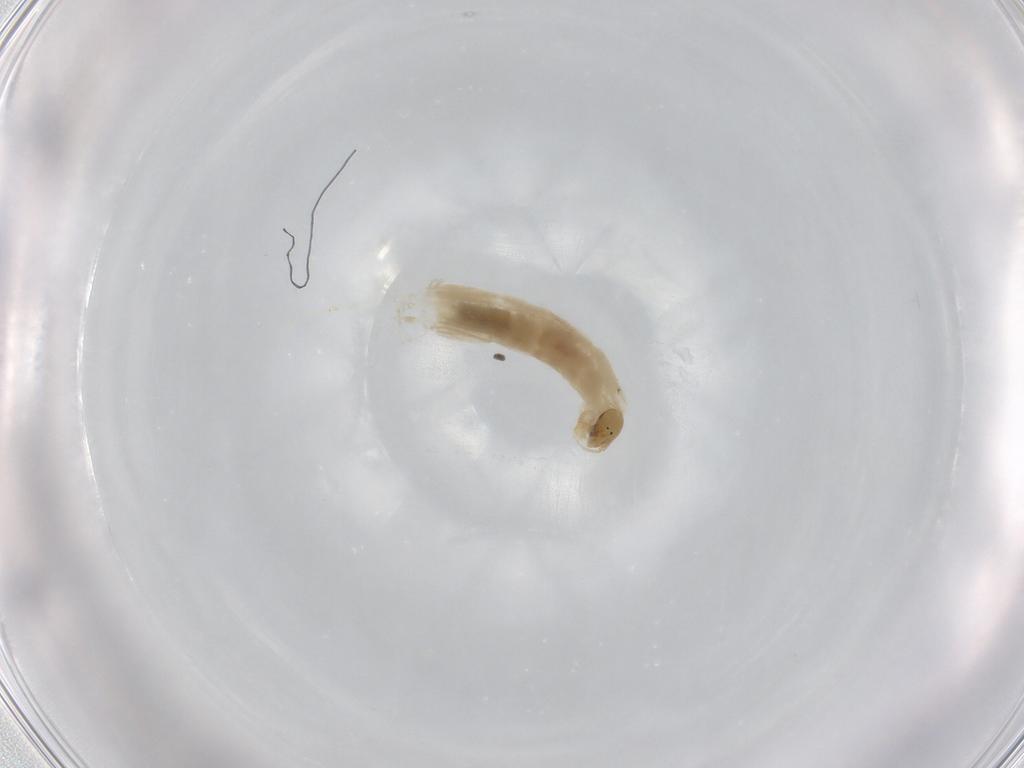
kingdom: Animalia
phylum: Arthropoda
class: Insecta
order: Diptera
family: Chironomidae
